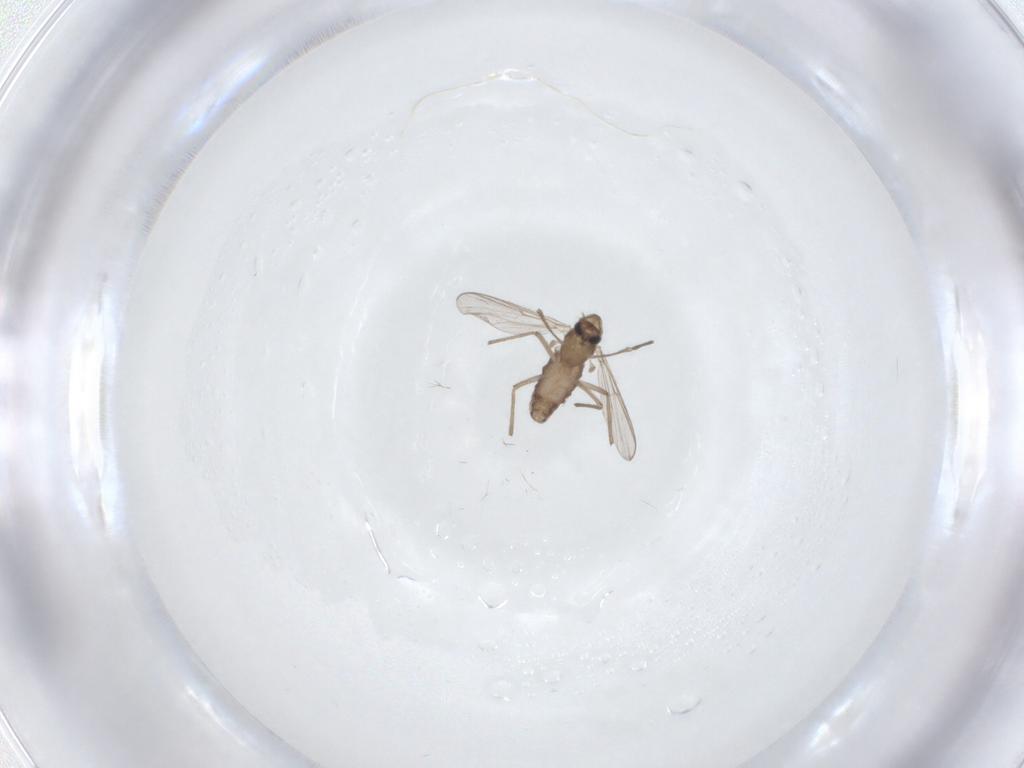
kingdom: Animalia
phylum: Arthropoda
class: Insecta
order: Diptera
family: Chironomidae
